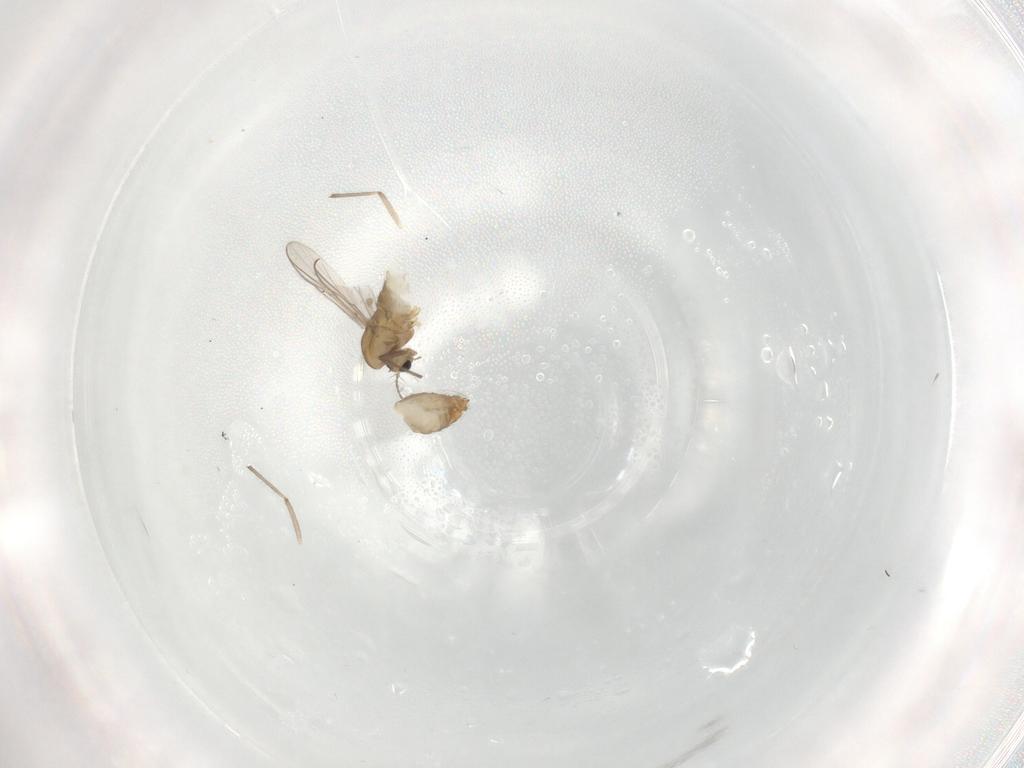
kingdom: Animalia
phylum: Arthropoda
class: Insecta
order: Diptera
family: Chironomidae
